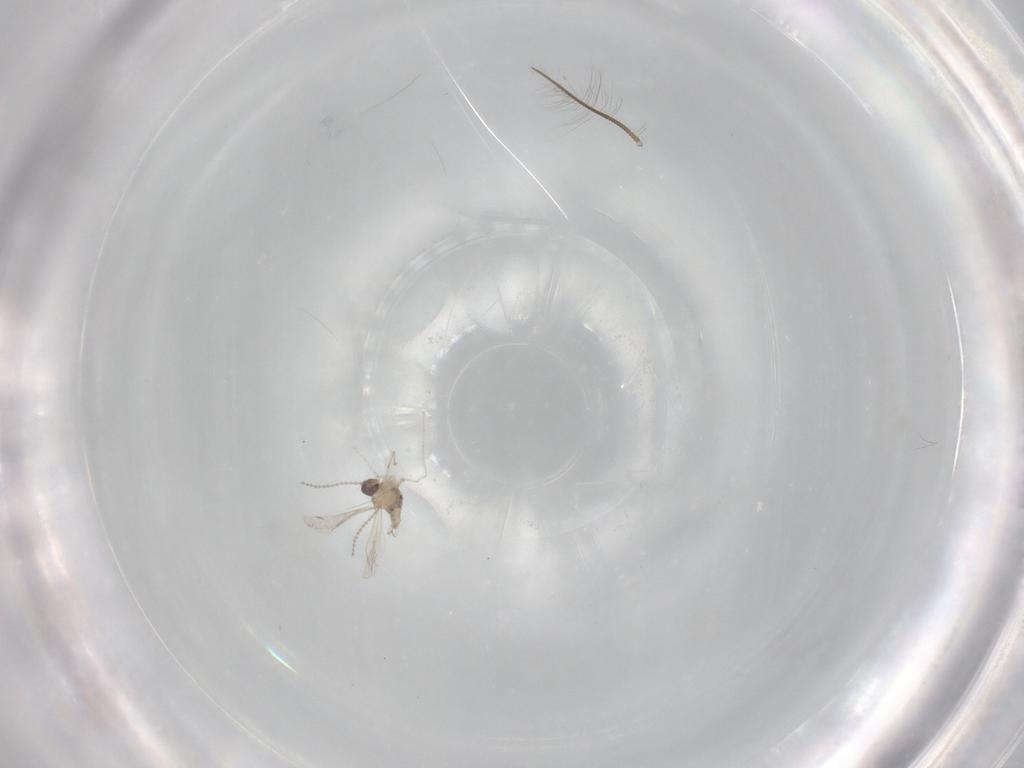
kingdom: Animalia
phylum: Arthropoda
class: Insecta
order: Diptera
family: Cecidomyiidae
